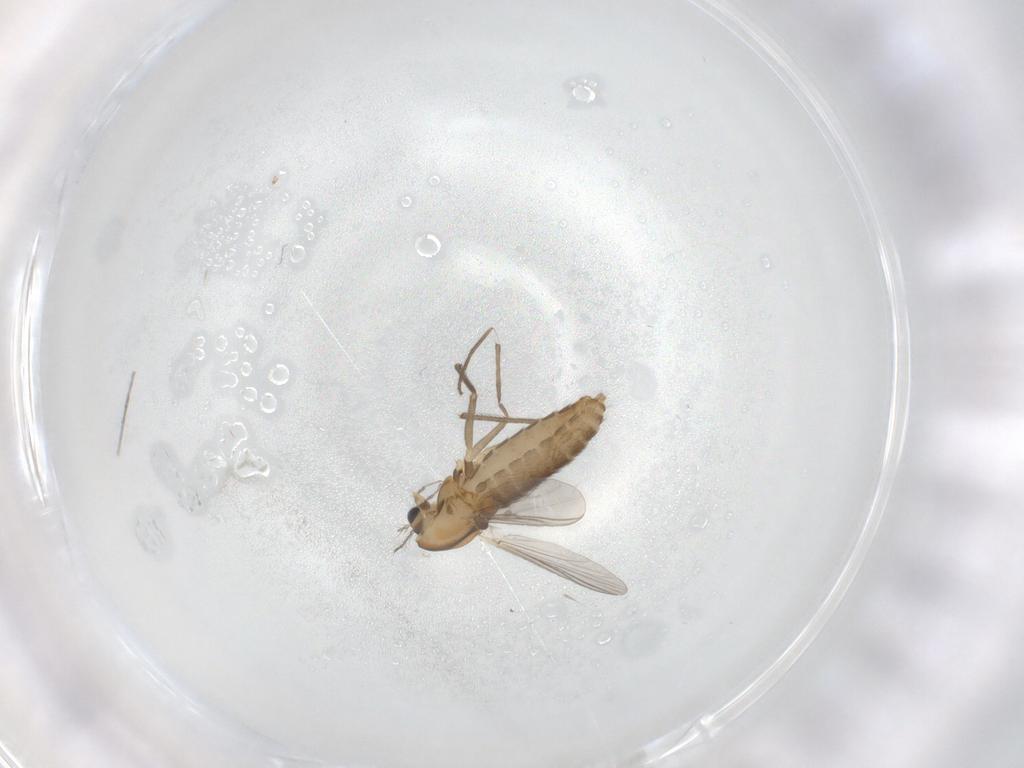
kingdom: Animalia
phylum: Arthropoda
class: Insecta
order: Diptera
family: Chironomidae
